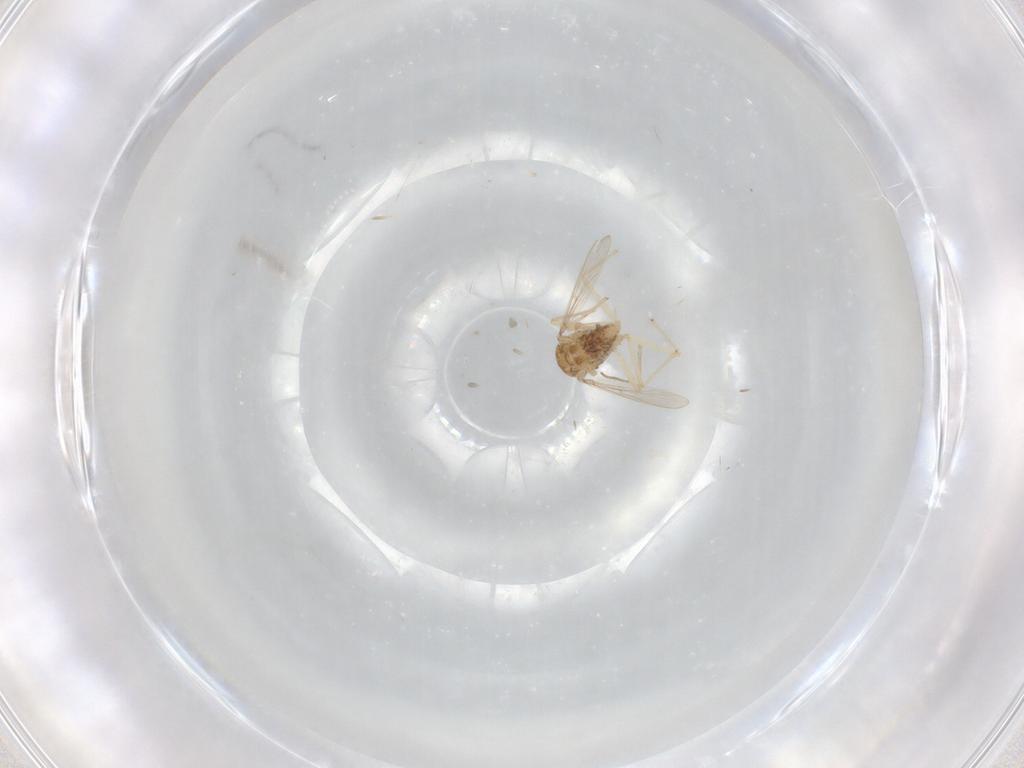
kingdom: Animalia
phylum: Arthropoda
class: Insecta
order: Diptera
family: Chironomidae
